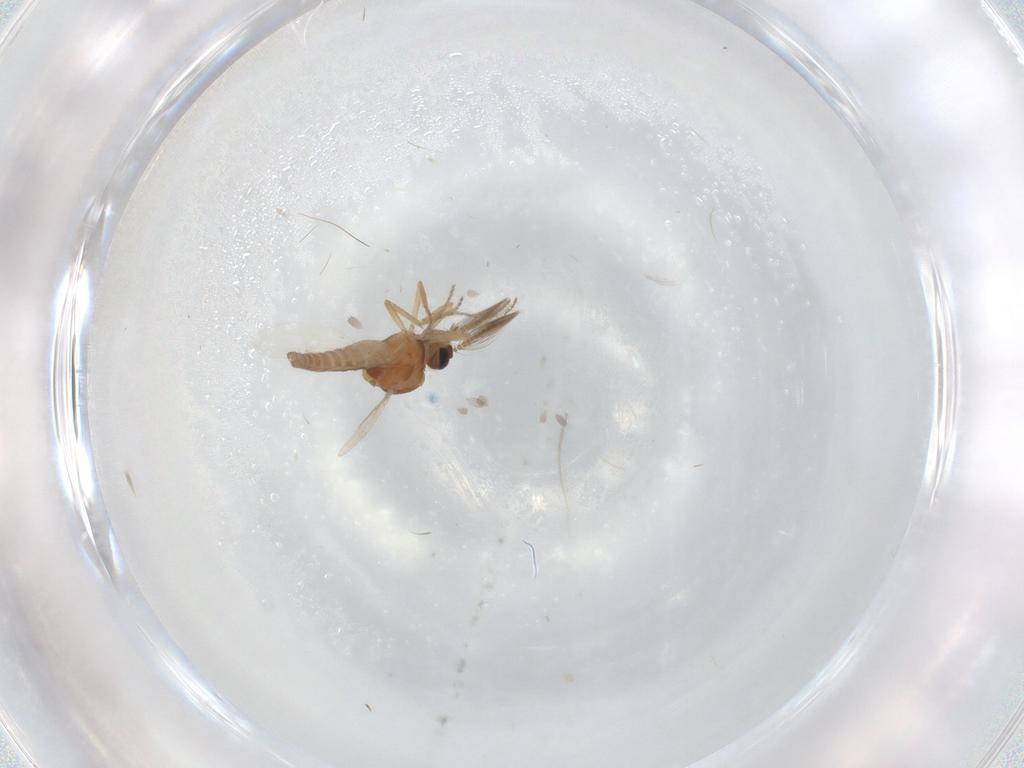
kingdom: Animalia
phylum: Arthropoda
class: Insecta
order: Diptera
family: Ceratopogonidae
